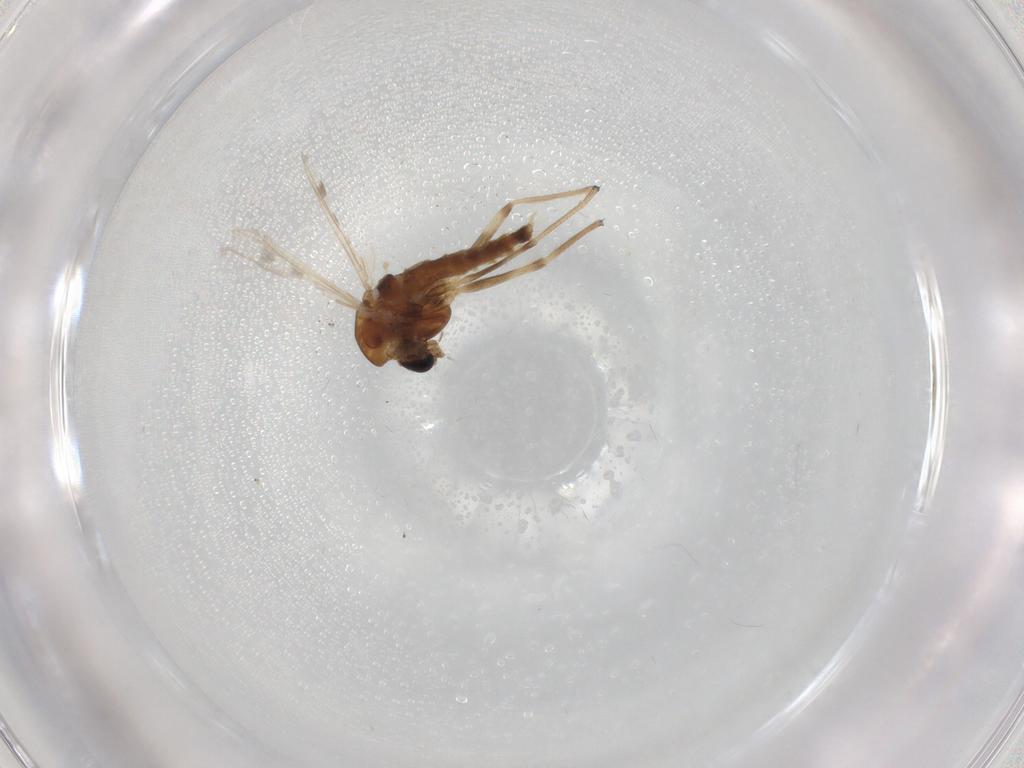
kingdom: Animalia
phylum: Arthropoda
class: Insecta
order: Diptera
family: Chironomidae
